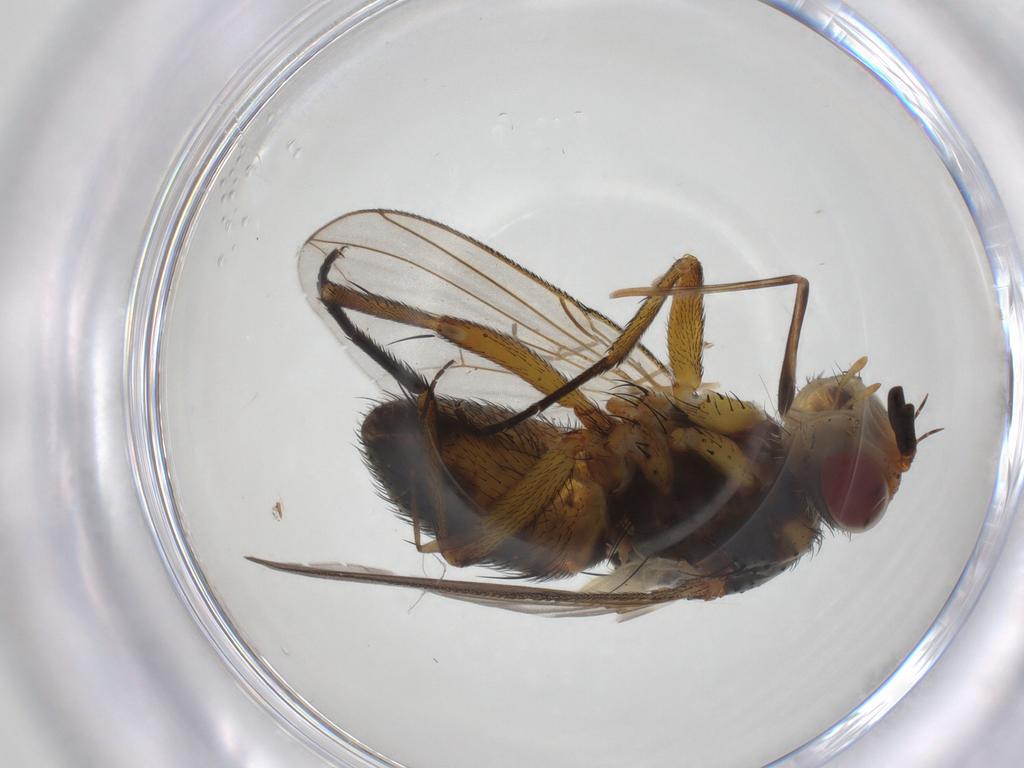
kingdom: Animalia
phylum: Arthropoda
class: Insecta
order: Diptera
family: Tachinidae
